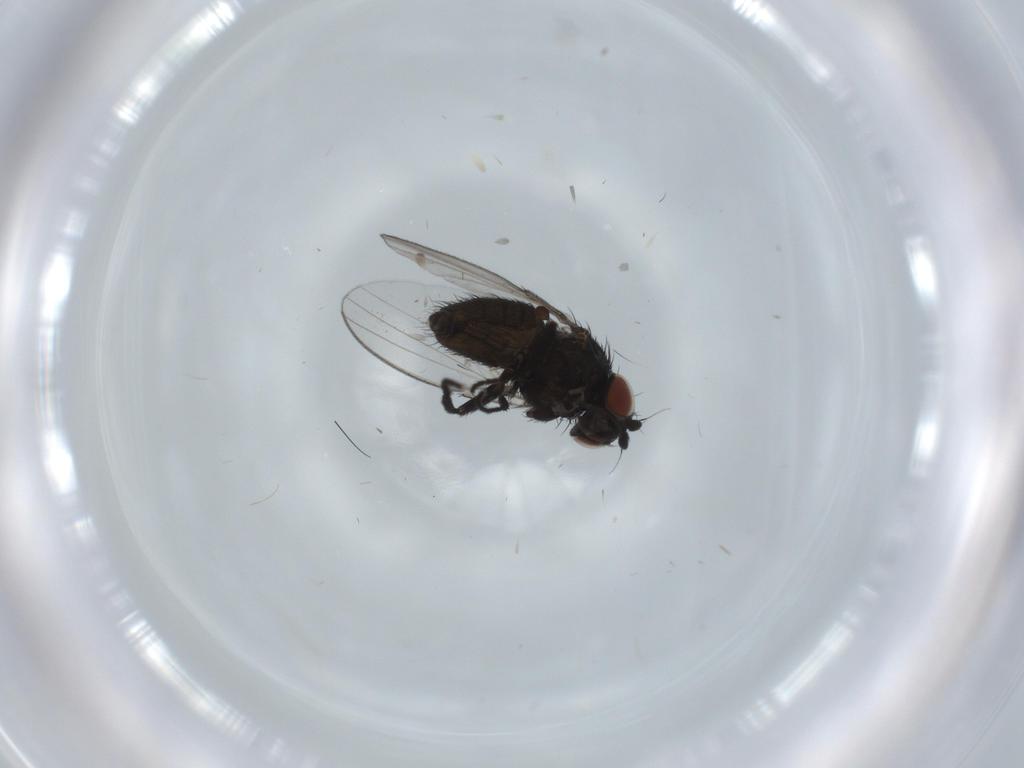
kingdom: Animalia
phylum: Arthropoda
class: Insecta
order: Diptera
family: Milichiidae
